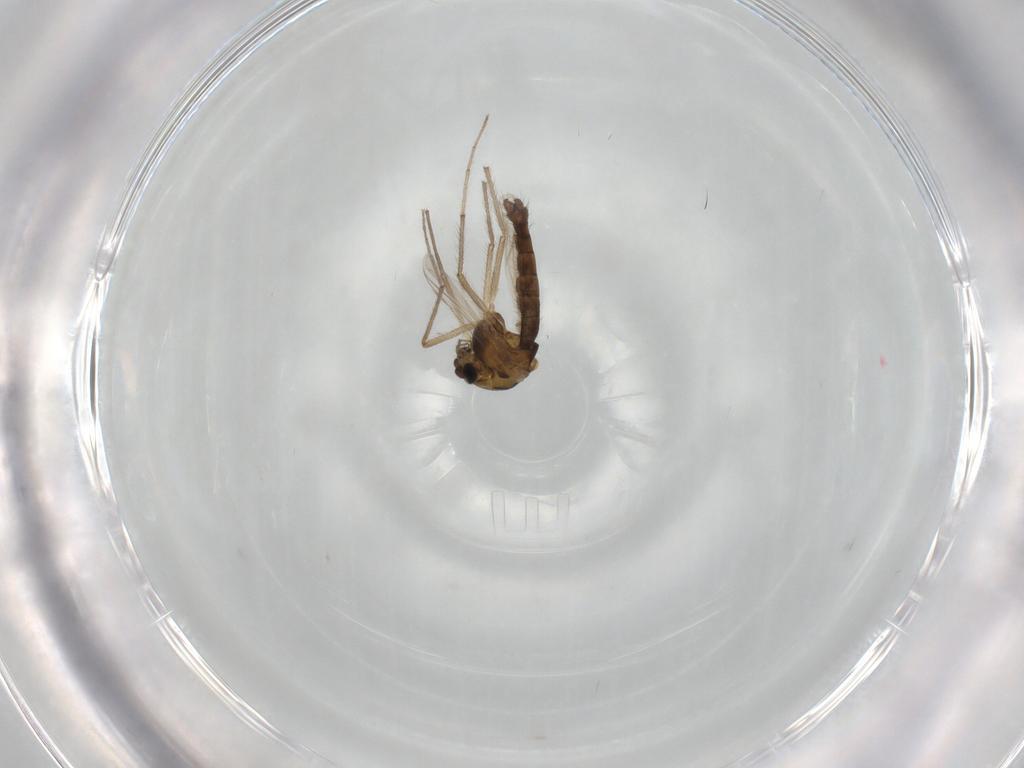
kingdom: Animalia
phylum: Arthropoda
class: Insecta
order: Diptera
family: Chironomidae
